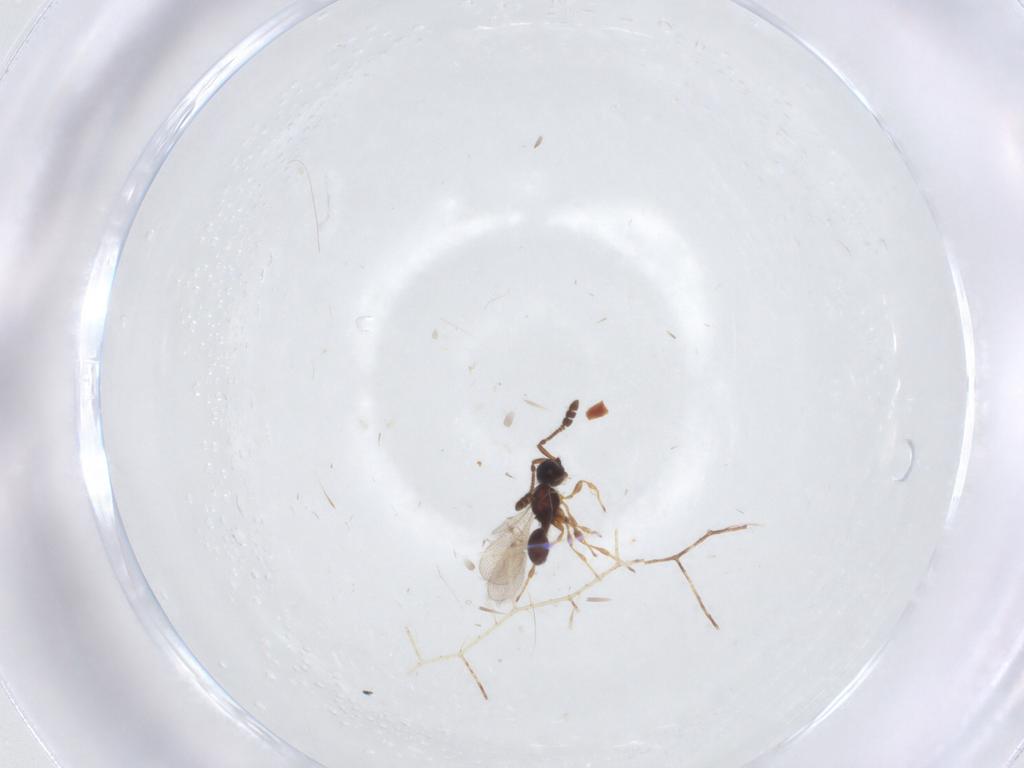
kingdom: Animalia
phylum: Arthropoda
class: Insecta
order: Hymenoptera
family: Diapriidae
